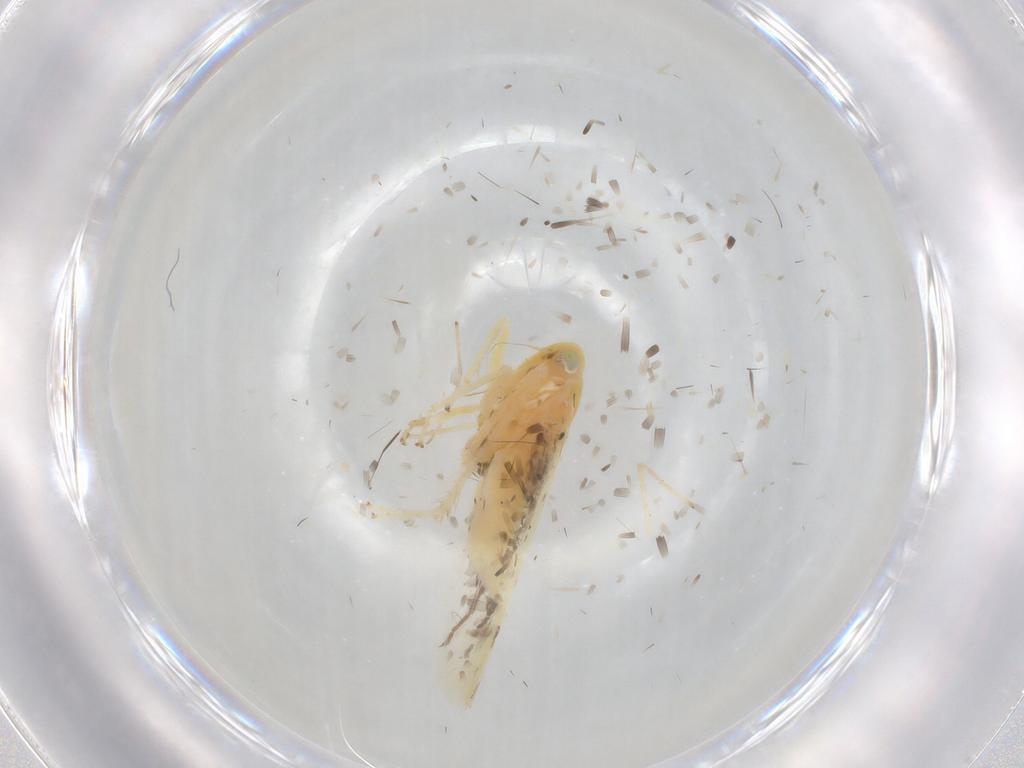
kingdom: Animalia
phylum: Arthropoda
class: Insecta
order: Hemiptera
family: Cicadellidae
